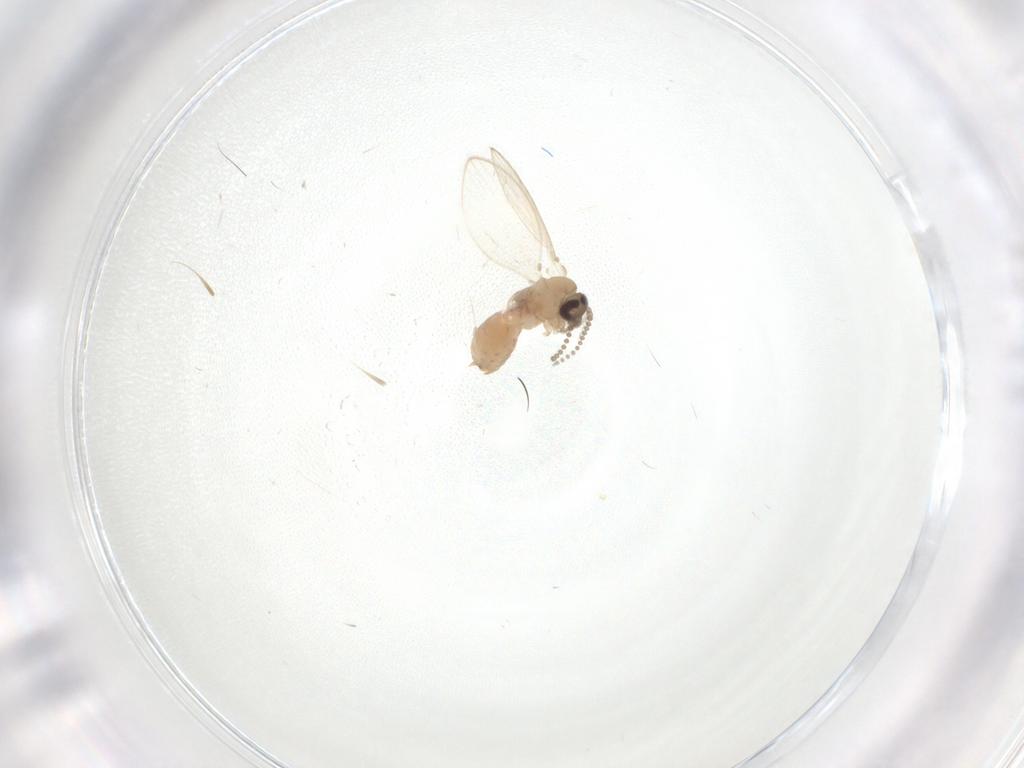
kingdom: Animalia
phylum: Arthropoda
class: Insecta
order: Diptera
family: Psychodidae
